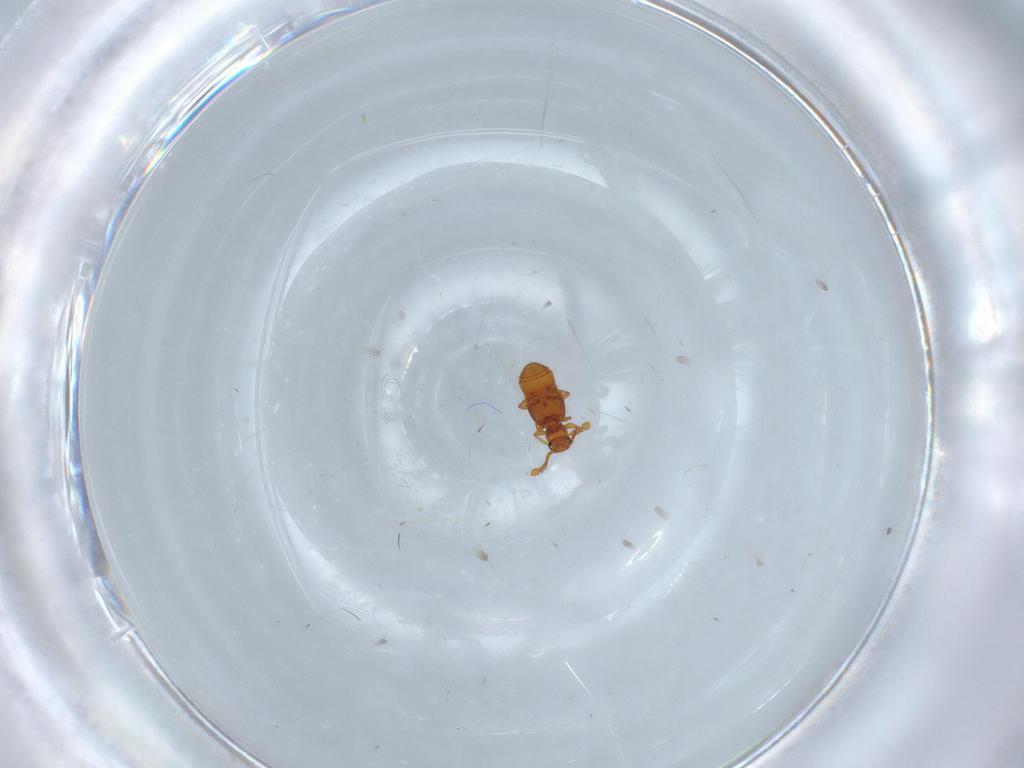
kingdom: Animalia
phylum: Arthropoda
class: Insecta
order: Coleoptera
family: Staphylinidae
